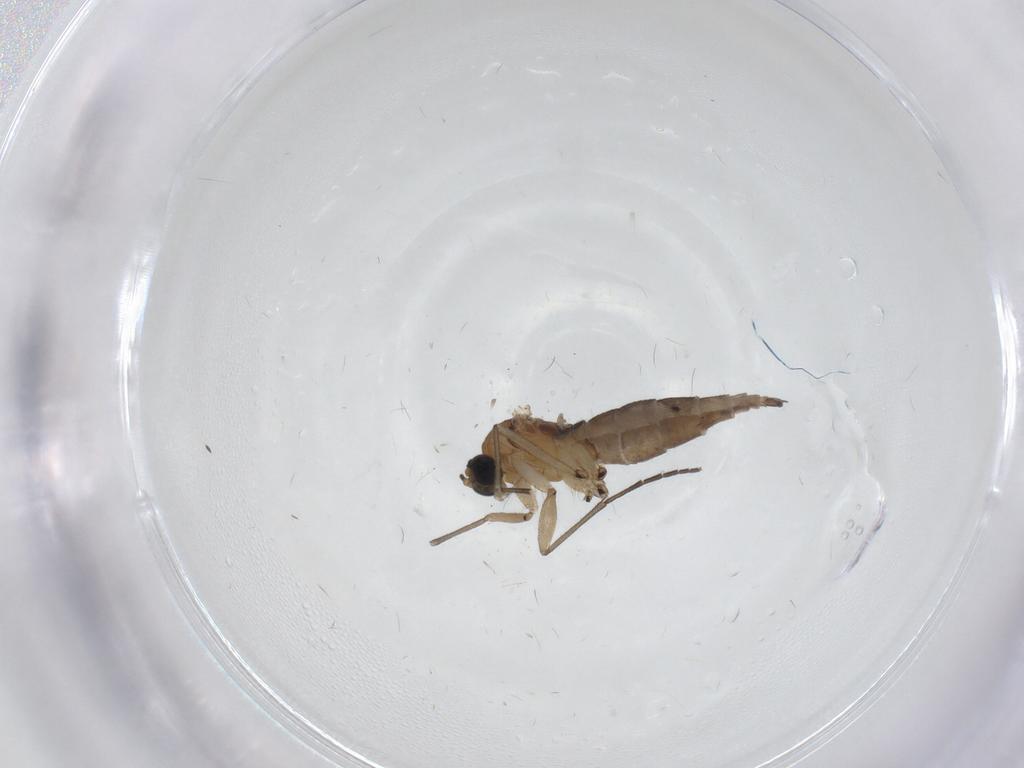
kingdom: Animalia
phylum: Arthropoda
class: Insecta
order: Diptera
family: Sciaridae
